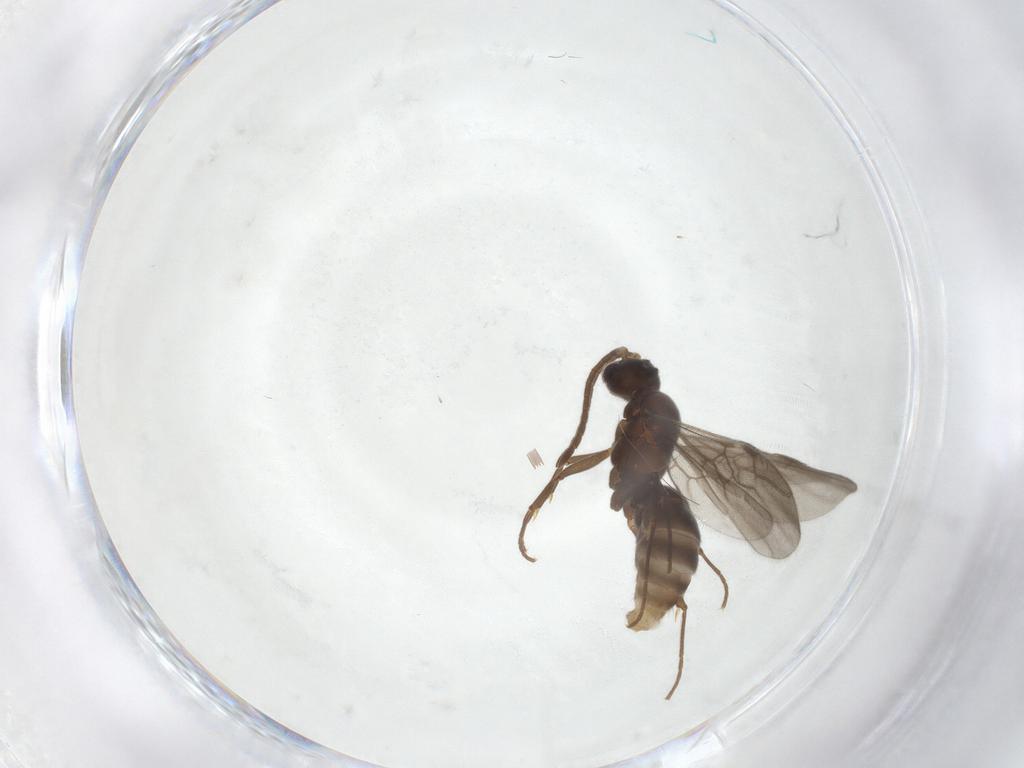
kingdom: Animalia
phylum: Arthropoda
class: Insecta
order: Hymenoptera
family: Formicidae
